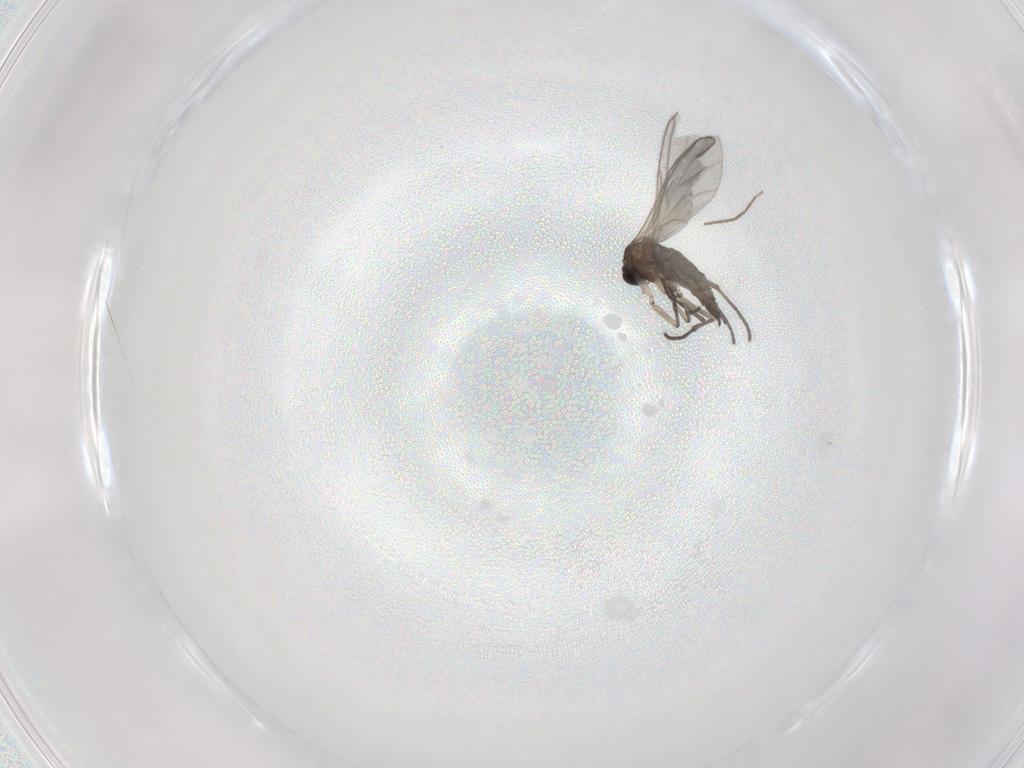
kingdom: Animalia
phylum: Arthropoda
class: Insecta
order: Diptera
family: Sciaridae
